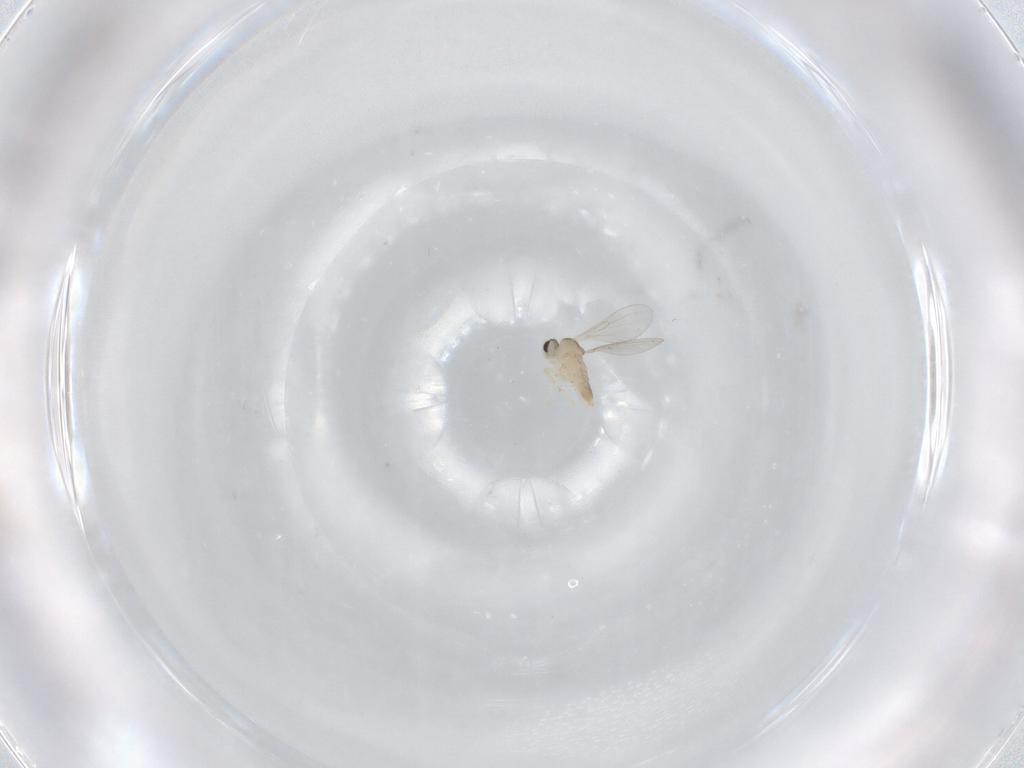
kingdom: Animalia
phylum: Arthropoda
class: Insecta
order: Diptera
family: Cecidomyiidae
